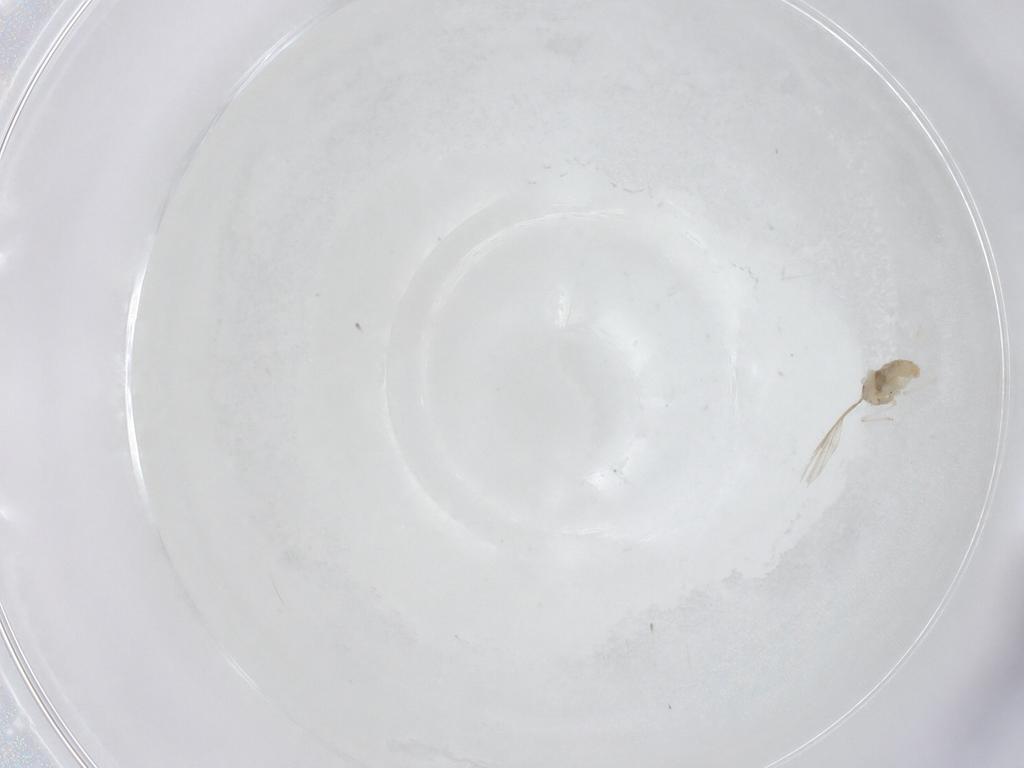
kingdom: Animalia
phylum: Arthropoda
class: Insecta
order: Diptera
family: Cecidomyiidae
